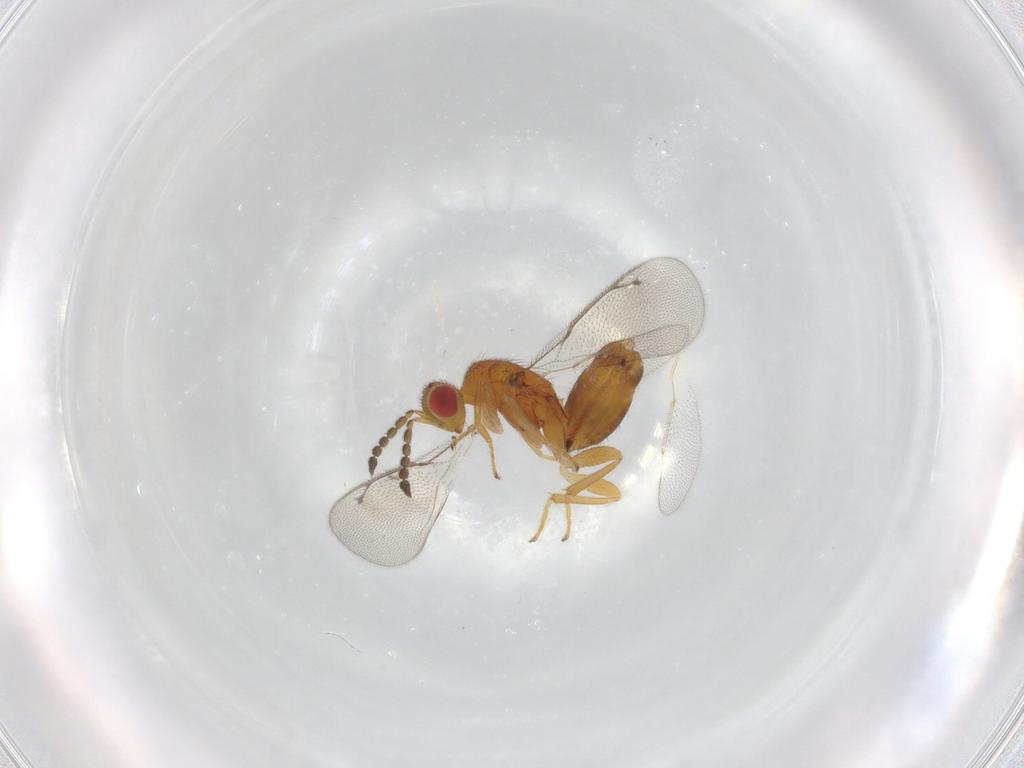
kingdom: Animalia
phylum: Arthropoda
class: Insecta
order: Hymenoptera
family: Eulophidae
